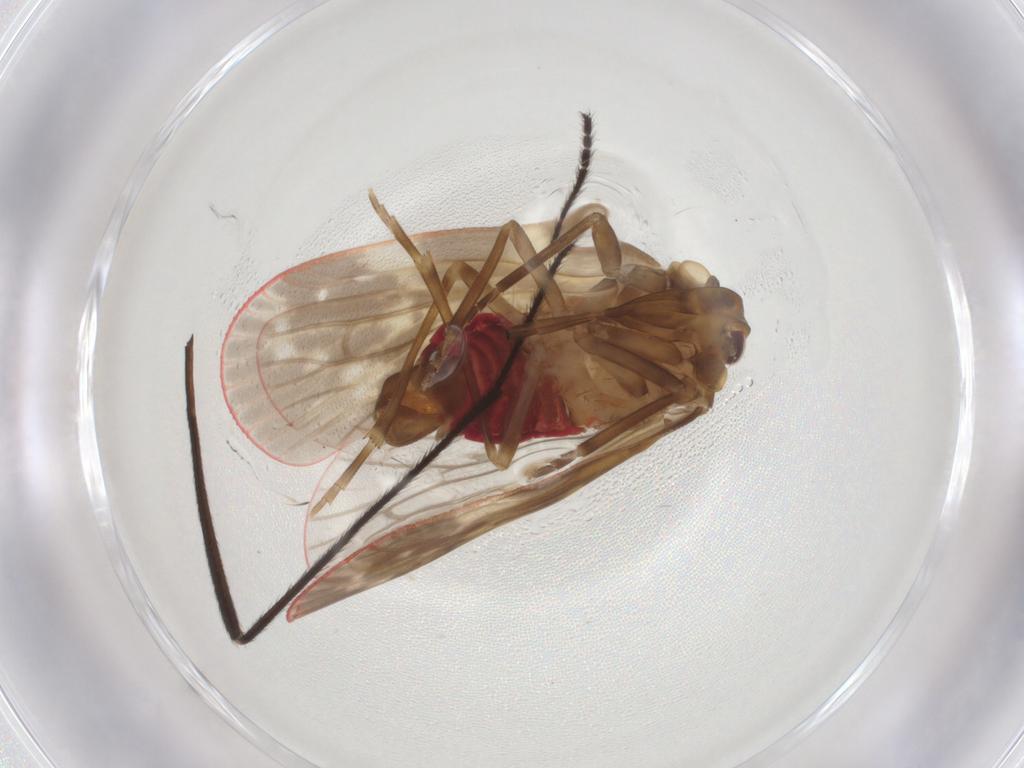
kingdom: Animalia
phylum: Arthropoda
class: Insecta
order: Hemiptera
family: Achilidae
